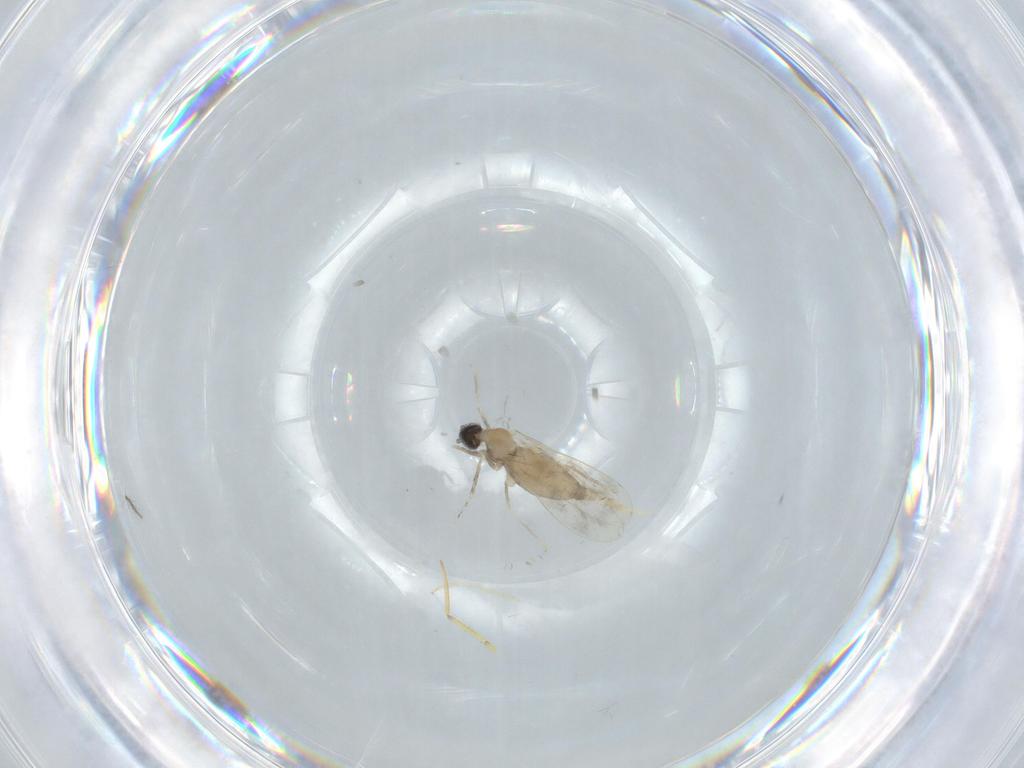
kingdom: Animalia
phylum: Arthropoda
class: Insecta
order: Diptera
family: Cecidomyiidae
